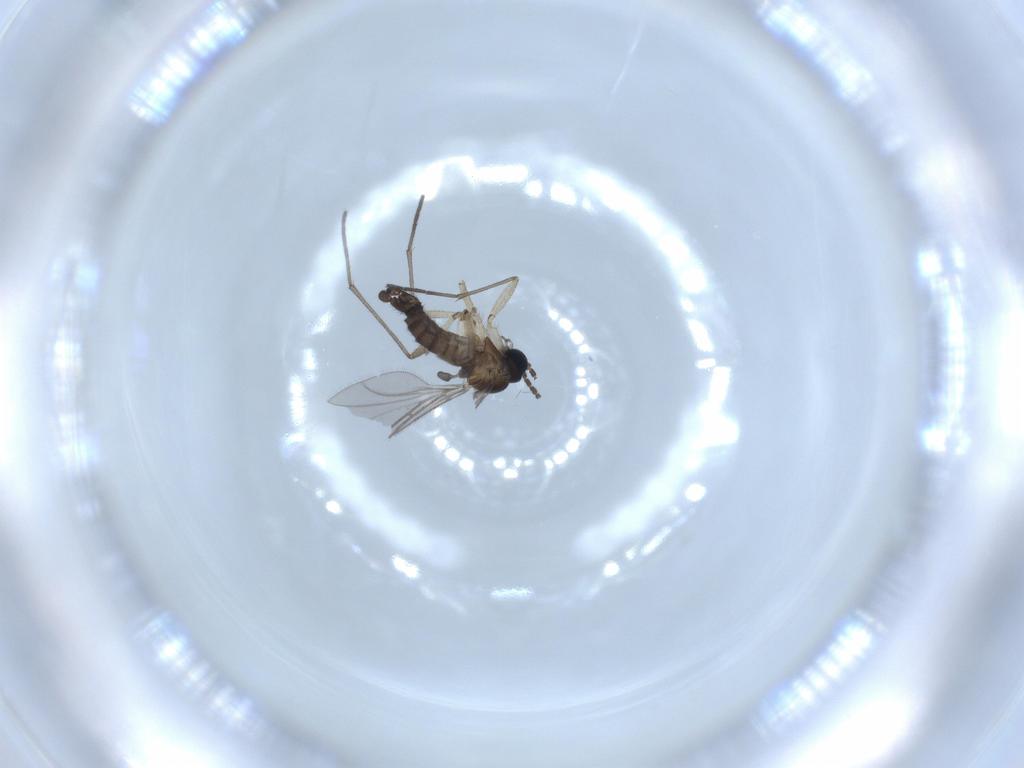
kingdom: Animalia
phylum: Arthropoda
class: Insecta
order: Diptera
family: Sciaridae
